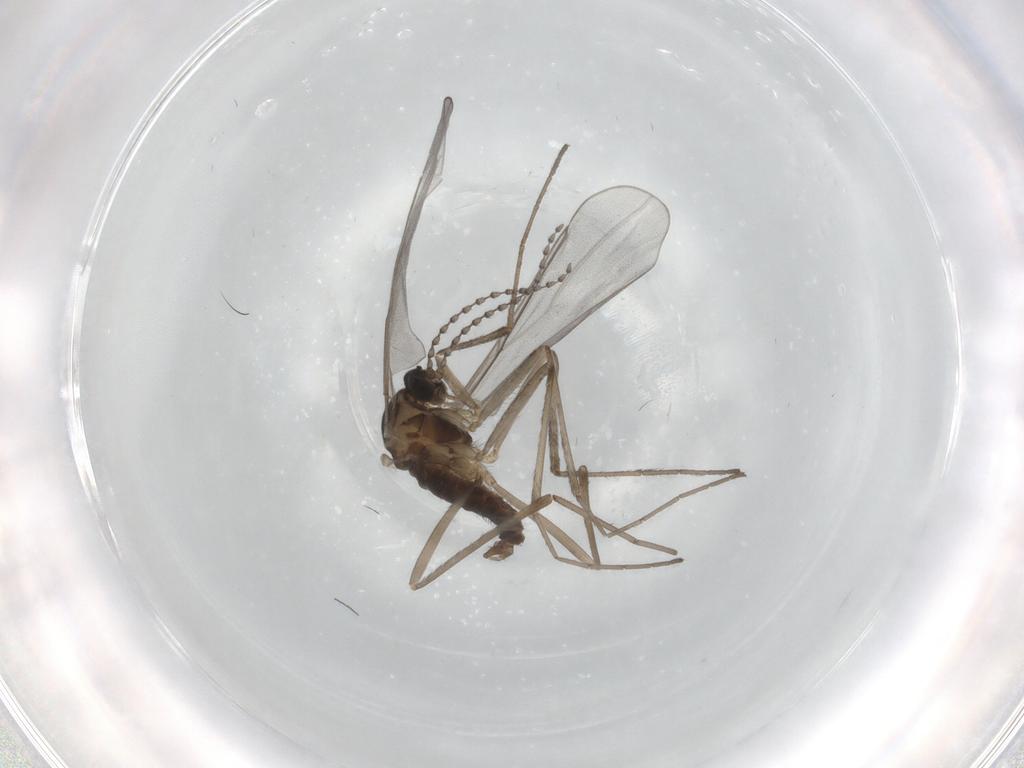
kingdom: Animalia
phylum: Arthropoda
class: Insecta
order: Diptera
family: Cecidomyiidae
